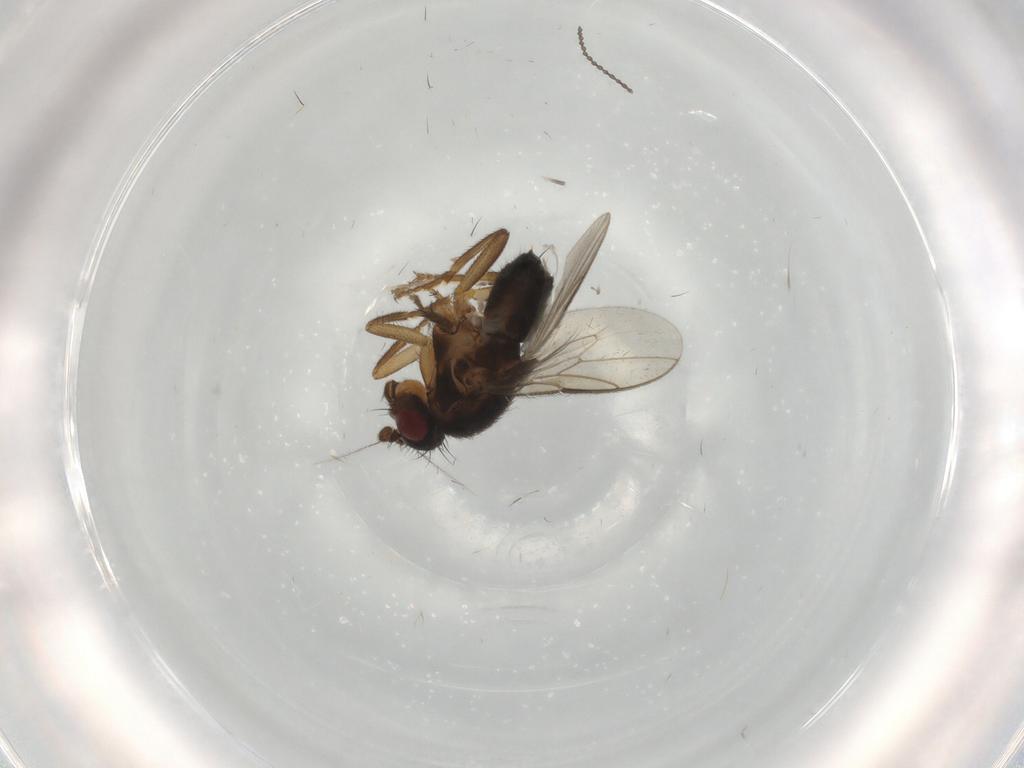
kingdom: Animalia
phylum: Arthropoda
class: Insecta
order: Diptera
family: Sphaeroceridae
